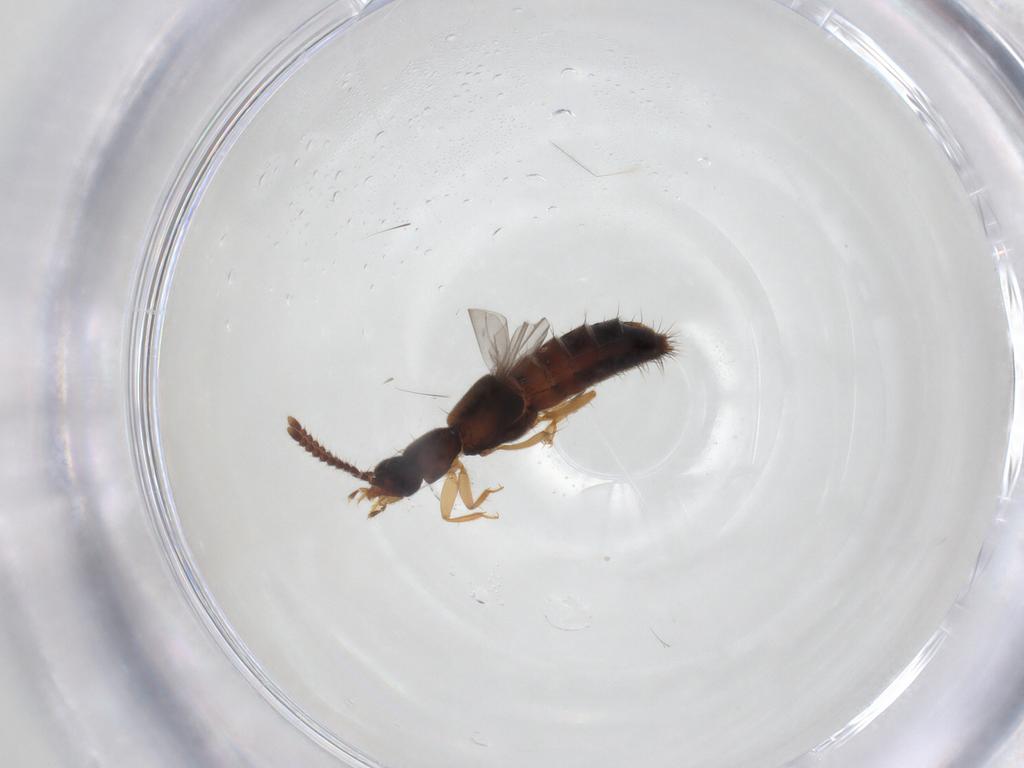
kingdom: Animalia
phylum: Arthropoda
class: Insecta
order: Coleoptera
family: Staphylinidae
